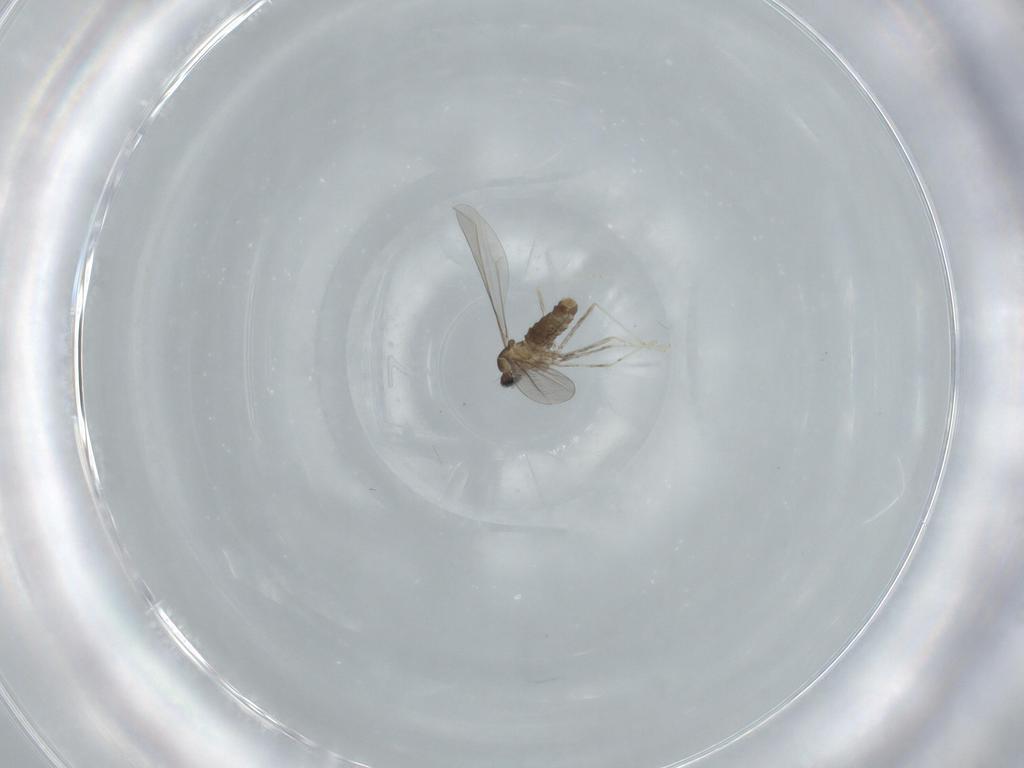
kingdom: Animalia
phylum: Arthropoda
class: Insecta
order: Diptera
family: Cecidomyiidae
